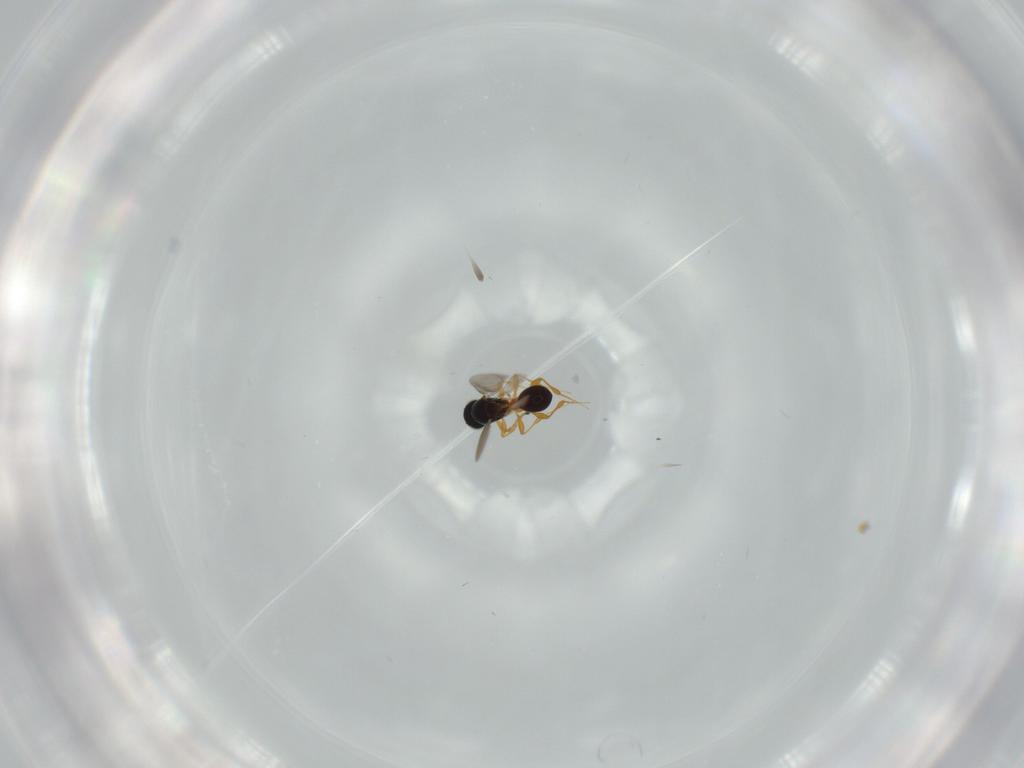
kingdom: Animalia
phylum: Arthropoda
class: Insecta
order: Hymenoptera
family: Platygastridae
